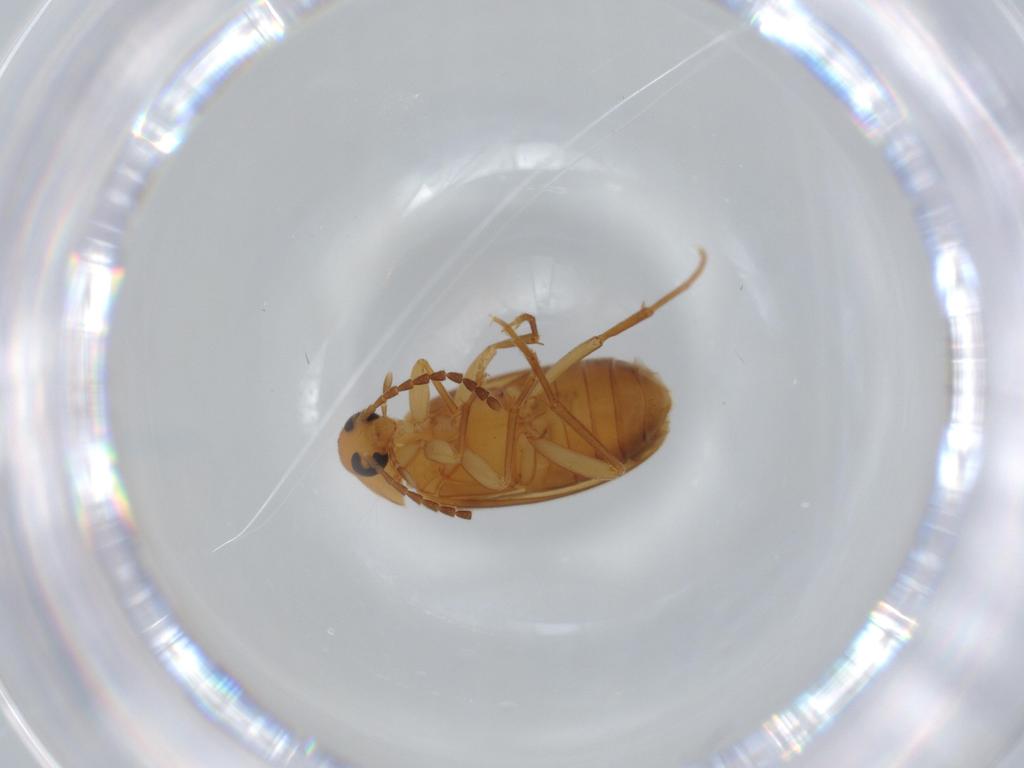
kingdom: Animalia
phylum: Arthropoda
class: Insecta
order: Coleoptera
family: Scraptiidae
